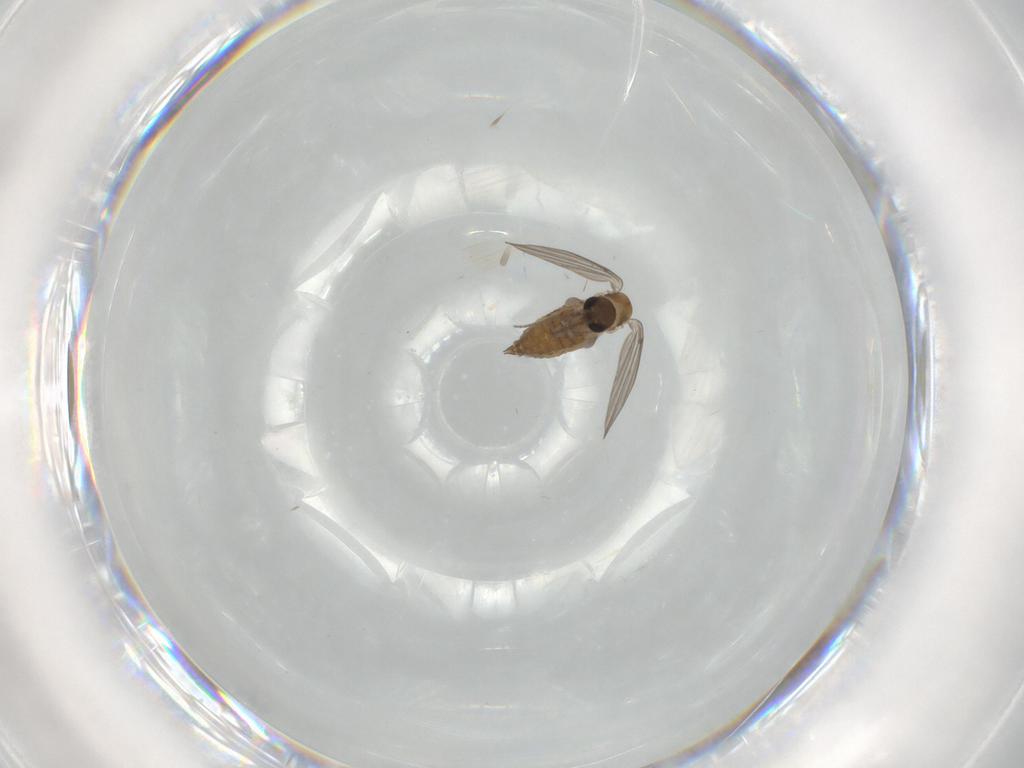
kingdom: Animalia
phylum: Arthropoda
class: Insecta
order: Diptera
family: Psychodidae
